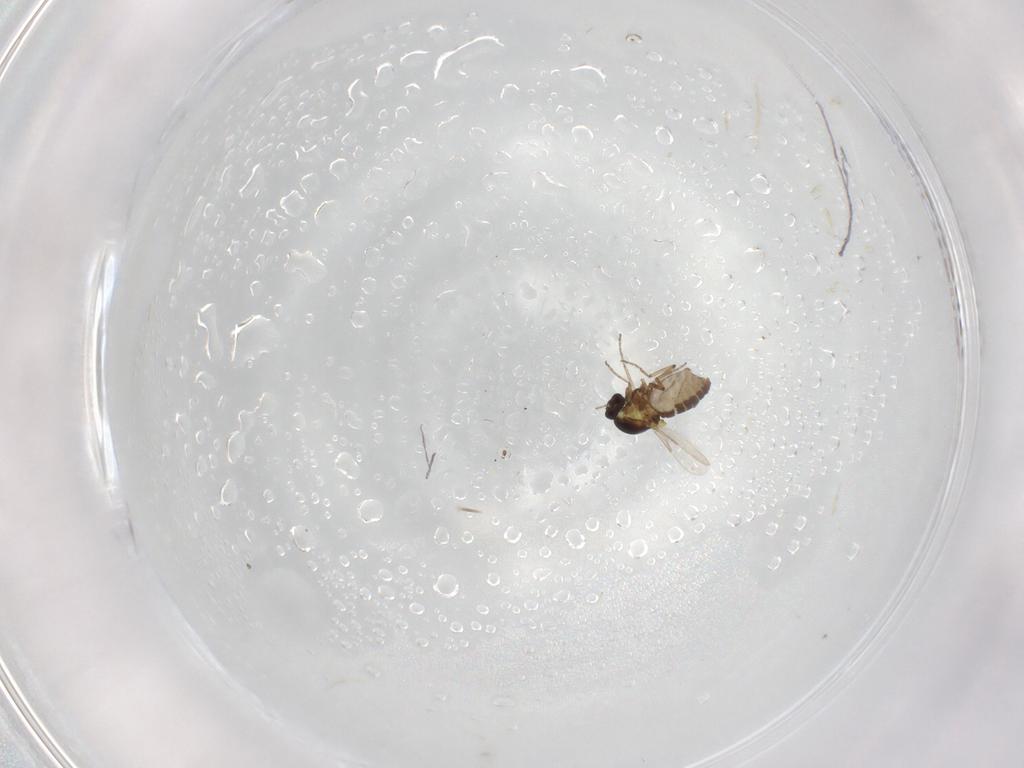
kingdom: Animalia
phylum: Arthropoda
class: Insecta
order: Diptera
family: Ceratopogonidae
